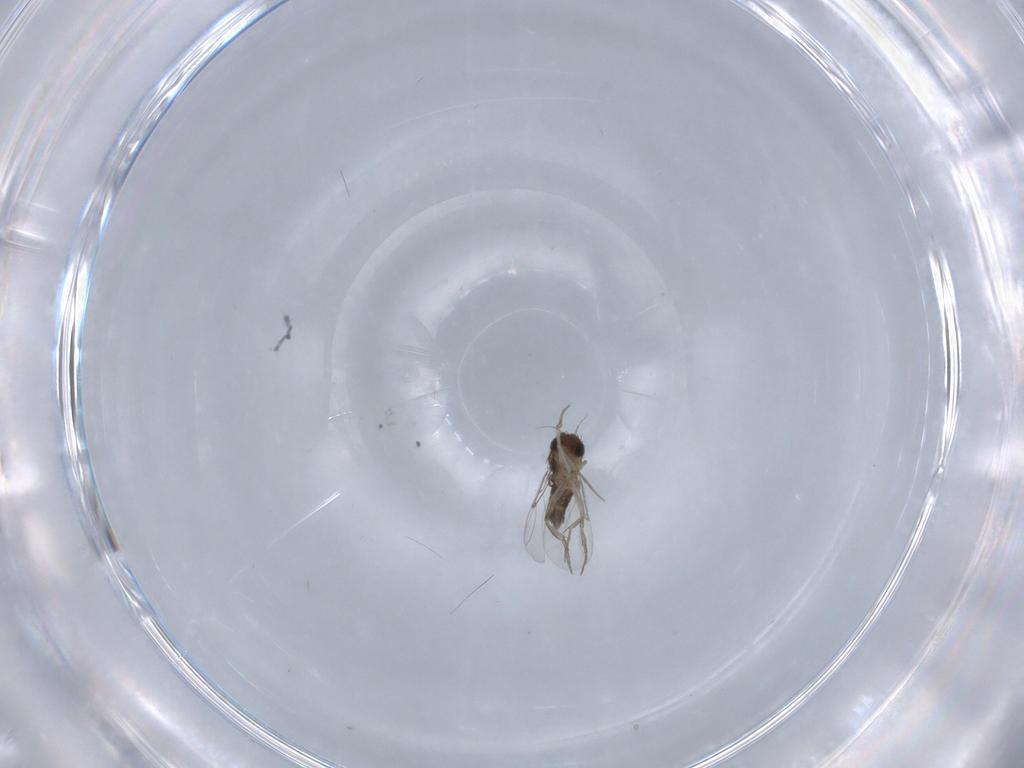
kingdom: Animalia
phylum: Arthropoda
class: Insecta
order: Diptera
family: Phoridae
